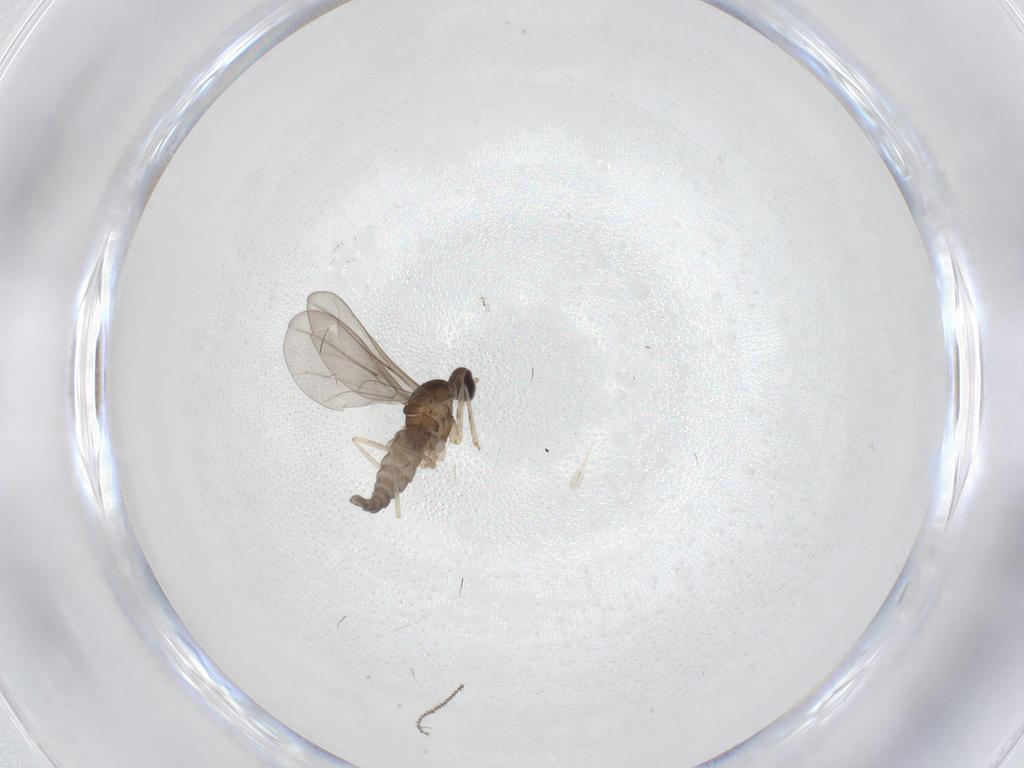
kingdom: Animalia
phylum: Arthropoda
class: Insecta
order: Diptera
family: Cecidomyiidae
